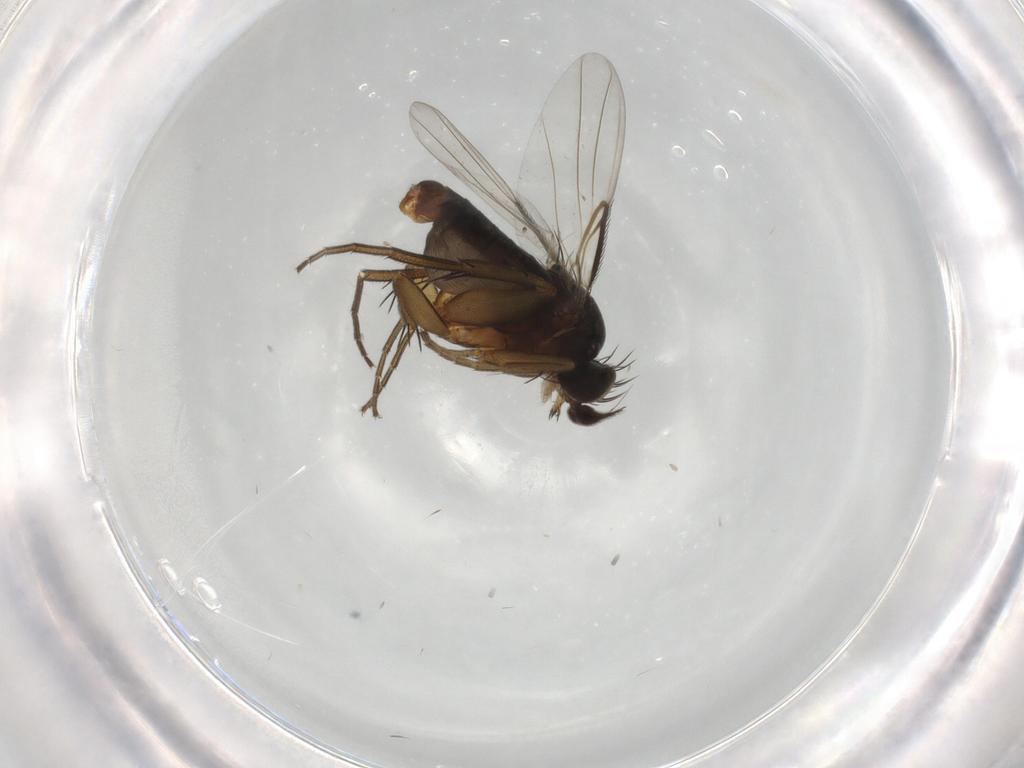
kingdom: Animalia
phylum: Arthropoda
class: Insecta
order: Diptera
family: Phoridae
